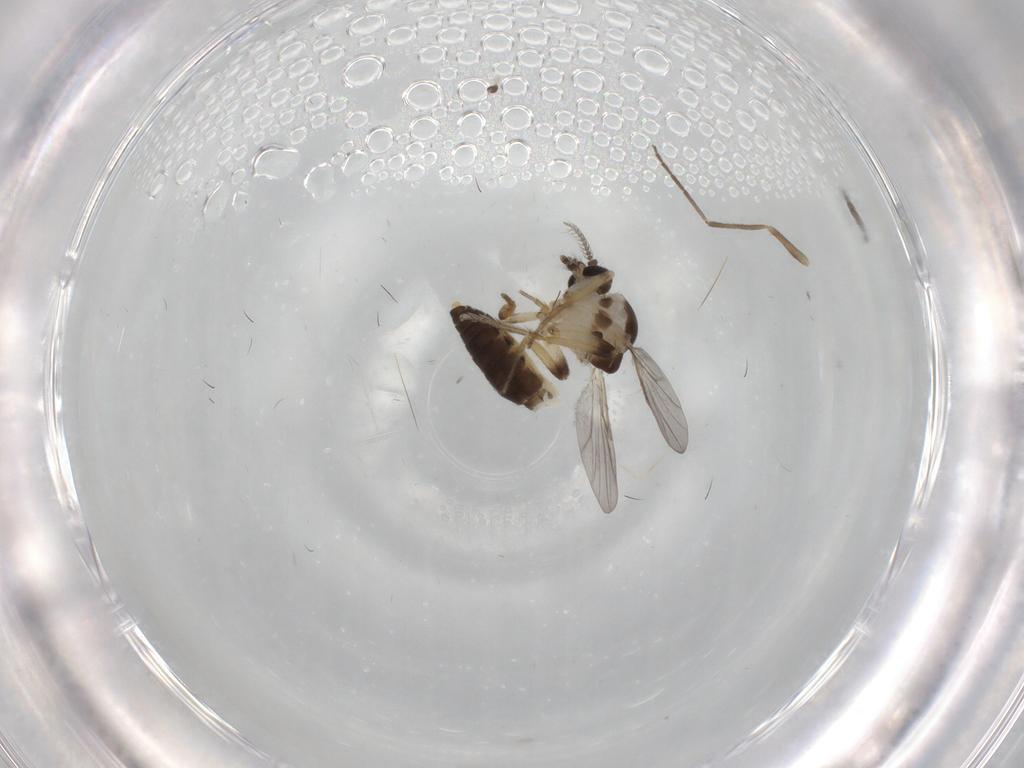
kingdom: Animalia
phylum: Arthropoda
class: Insecta
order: Diptera
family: Ceratopogonidae
